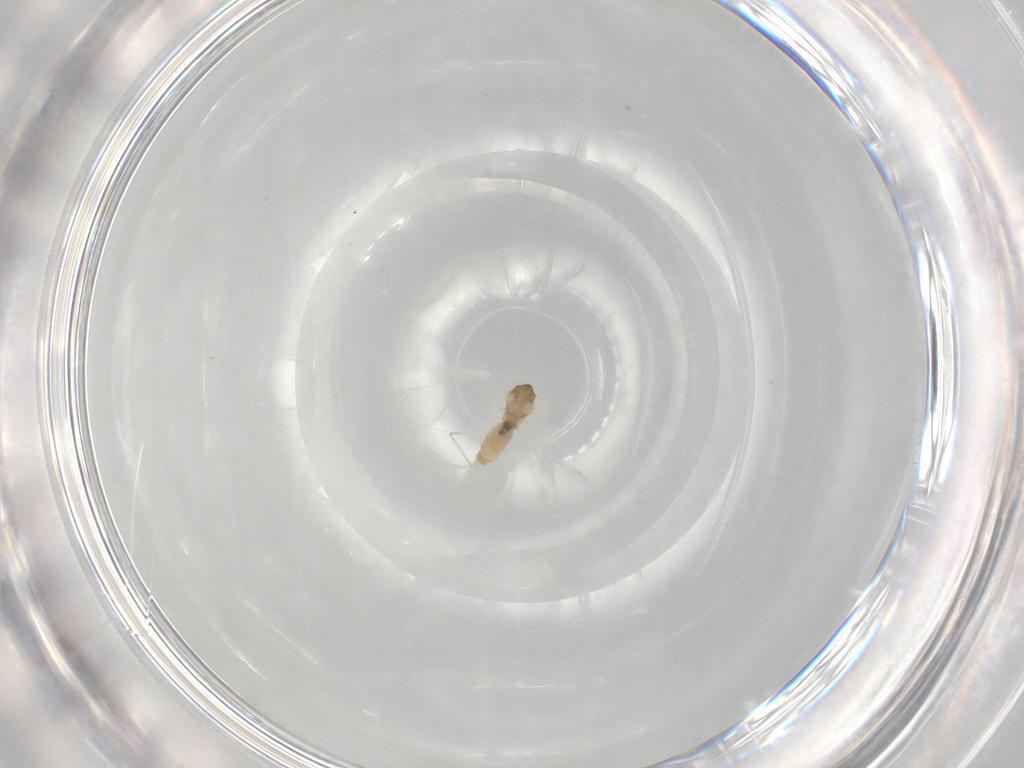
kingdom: Animalia
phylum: Arthropoda
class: Insecta
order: Diptera
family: Cecidomyiidae
